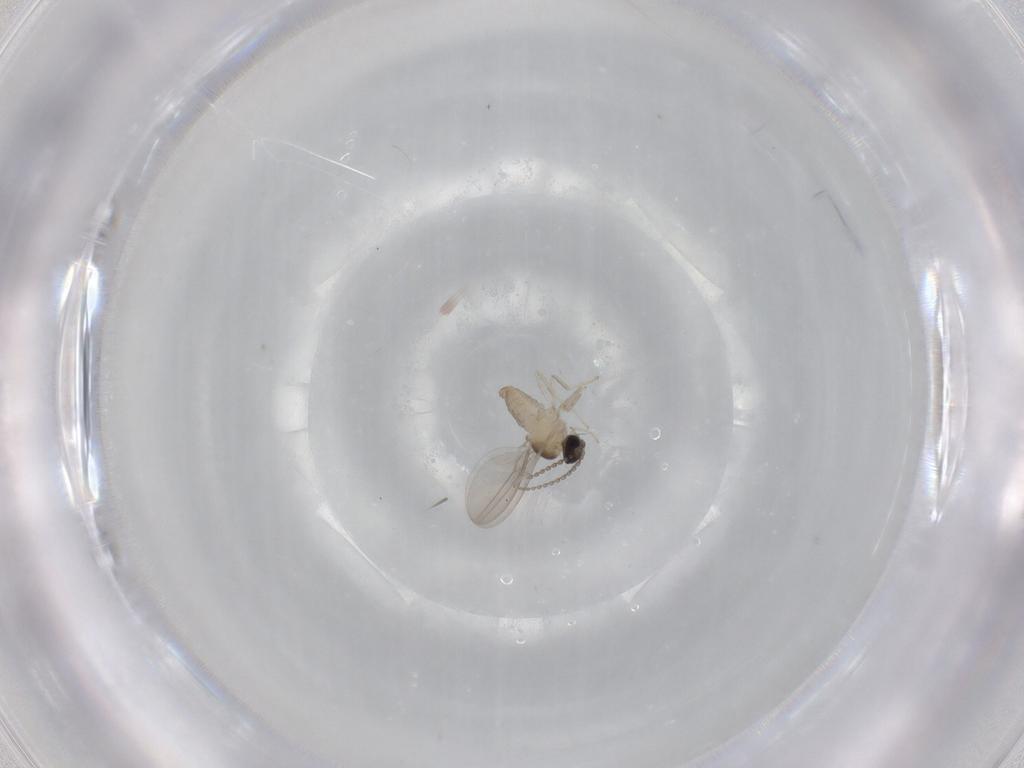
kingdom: Animalia
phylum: Arthropoda
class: Insecta
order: Diptera
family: Cecidomyiidae
